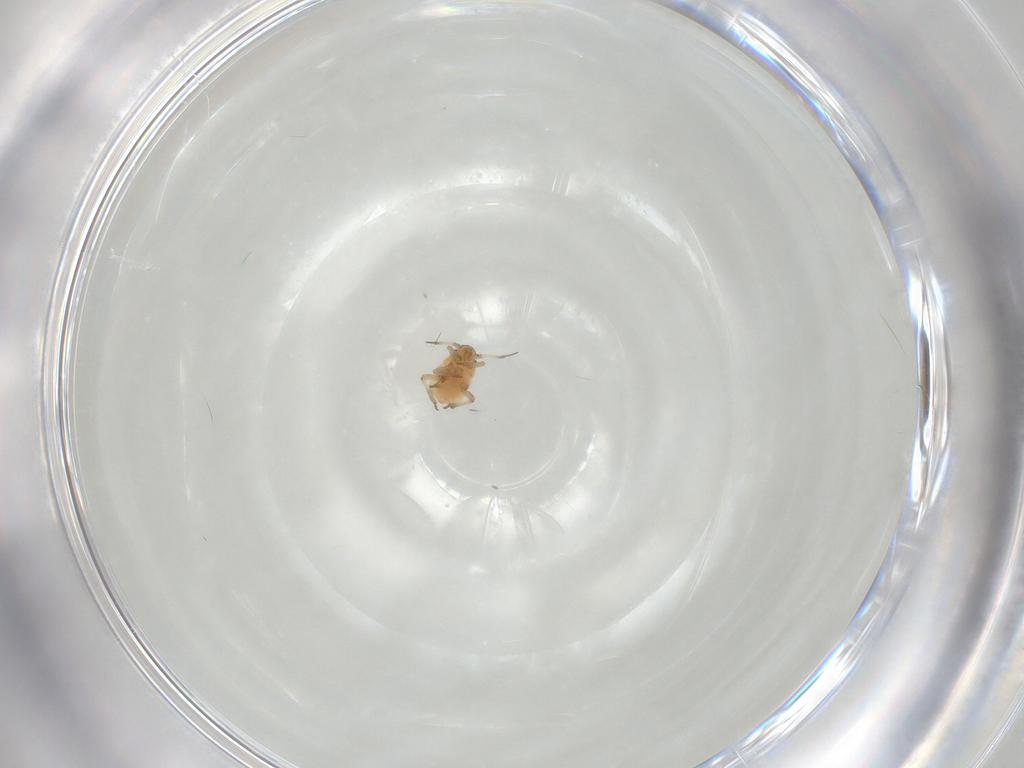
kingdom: Animalia
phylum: Arthropoda
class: Insecta
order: Hemiptera
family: Aphididae
